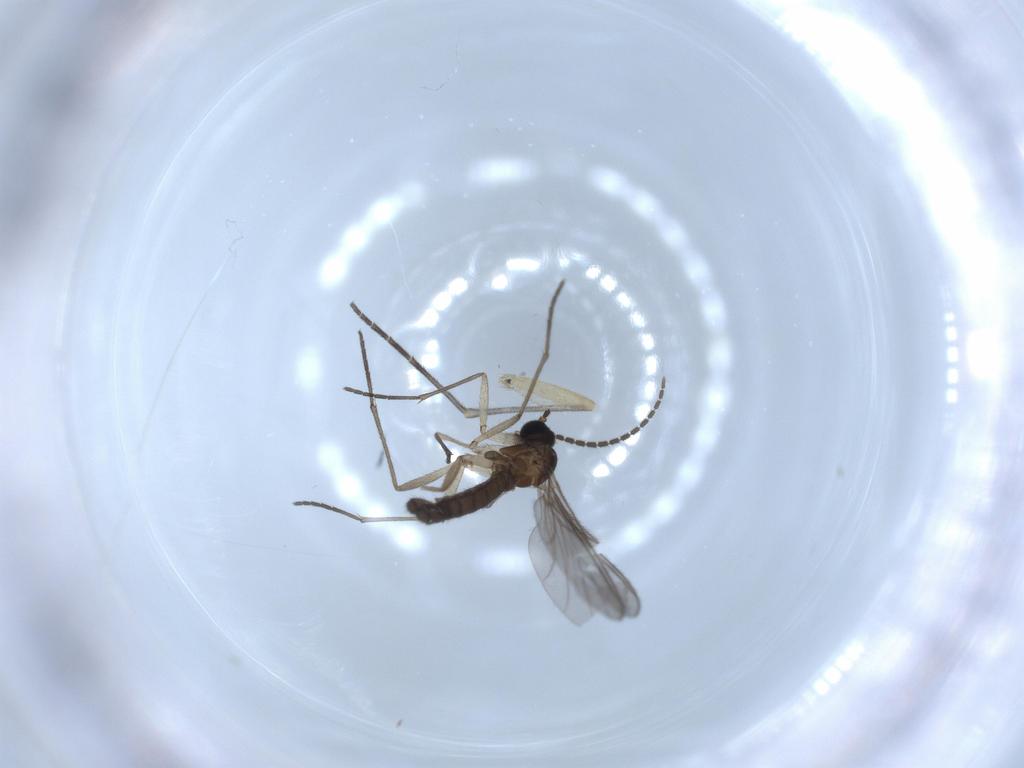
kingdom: Animalia
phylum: Arthropoda
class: Insecta
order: Diptera
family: Sciaridae
